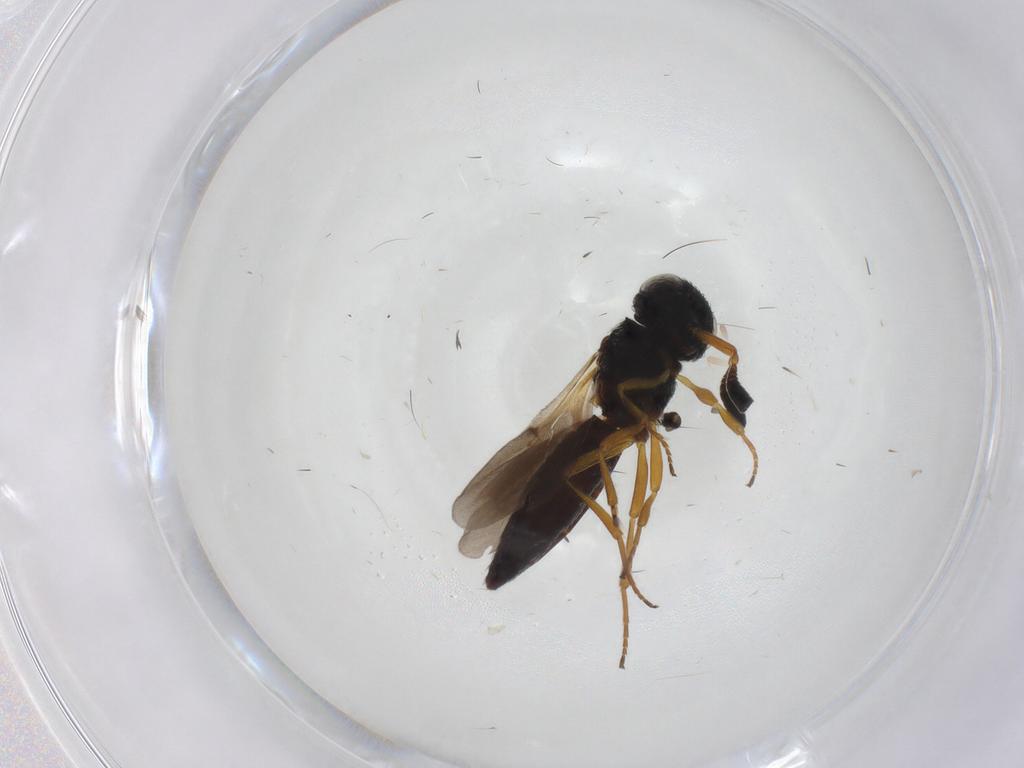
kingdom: Animalia
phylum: Arthropoda
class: Insecta
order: Hymenoptera
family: Scelionidae
